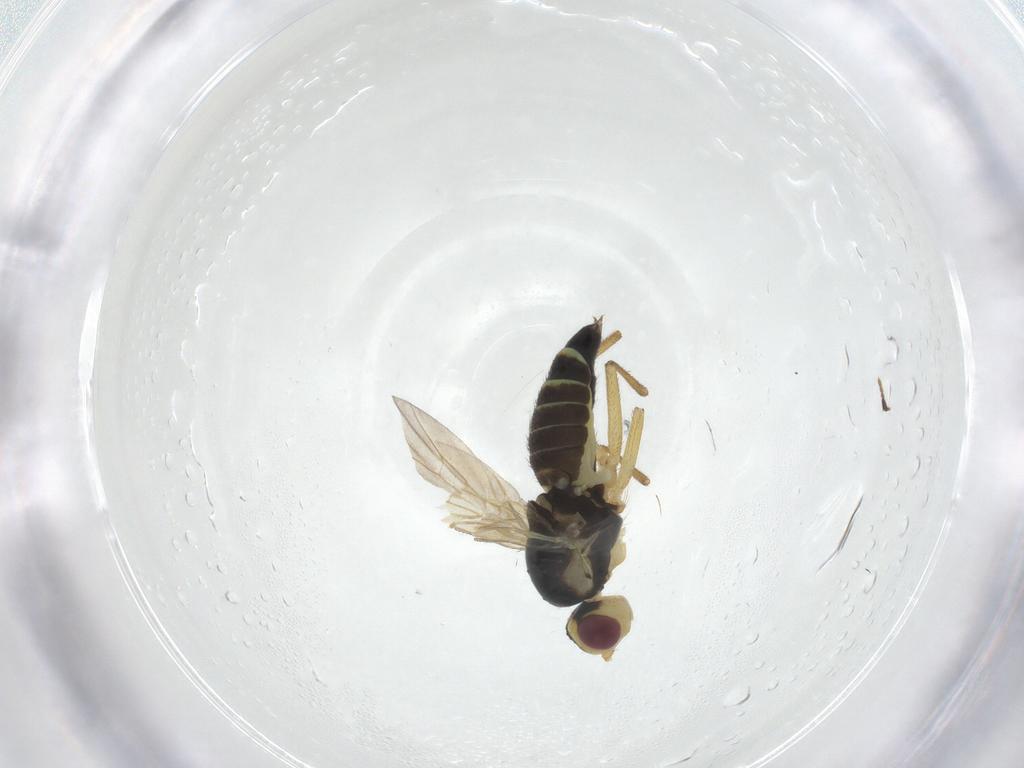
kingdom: Animalia
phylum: Arthropoda
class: Insecta
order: Diptera
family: Agromyzidae
